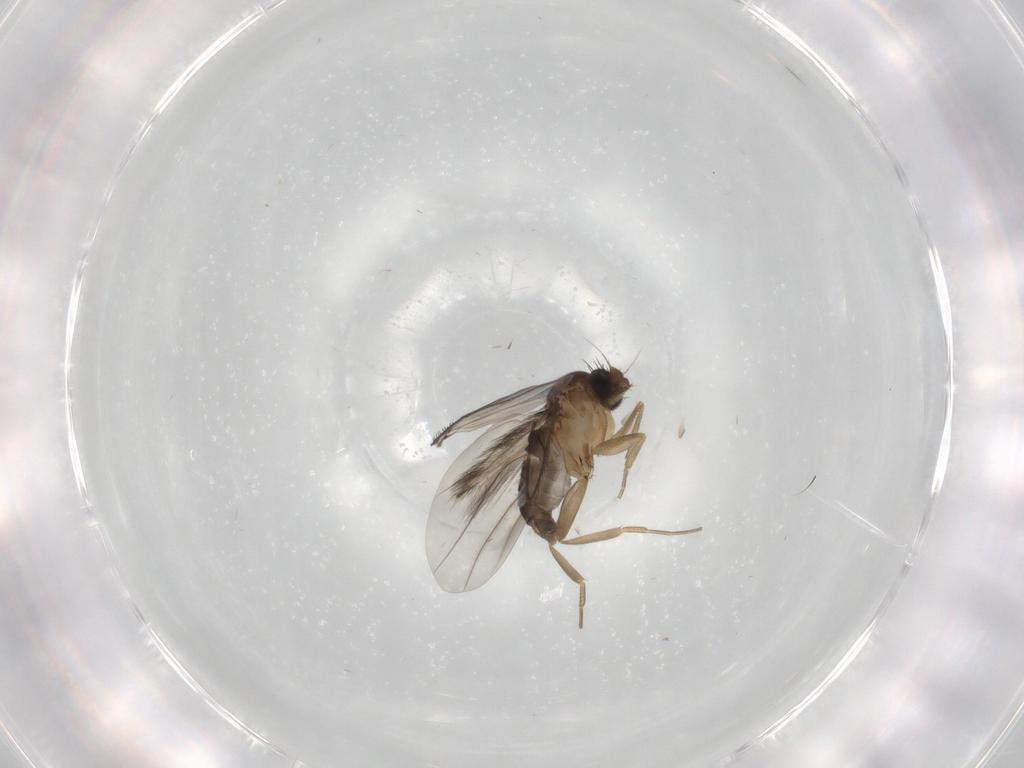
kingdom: Animalia
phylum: Arthropoda
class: Insecta
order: Diptera
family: Phoridae
